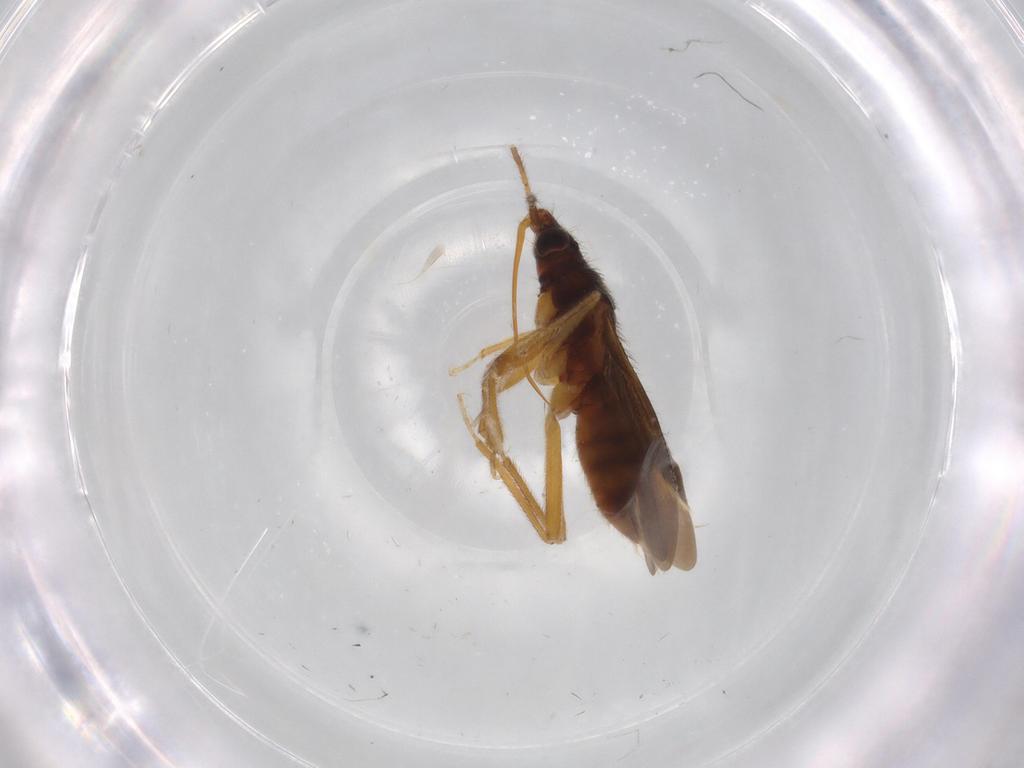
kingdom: Animalia
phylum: Arthropoda
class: Insecta
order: Hemiptera
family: Anthocoridae
